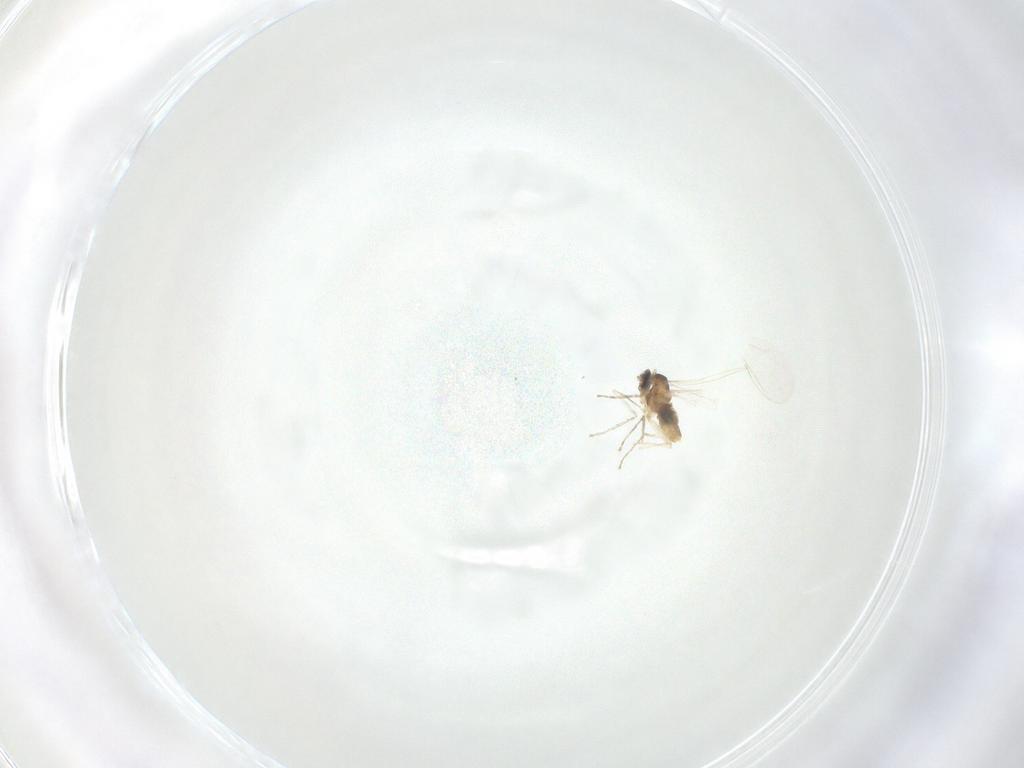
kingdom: Animalia
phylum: Arthropoda
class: Insecta
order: Diptera
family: Cecidomyiidae
